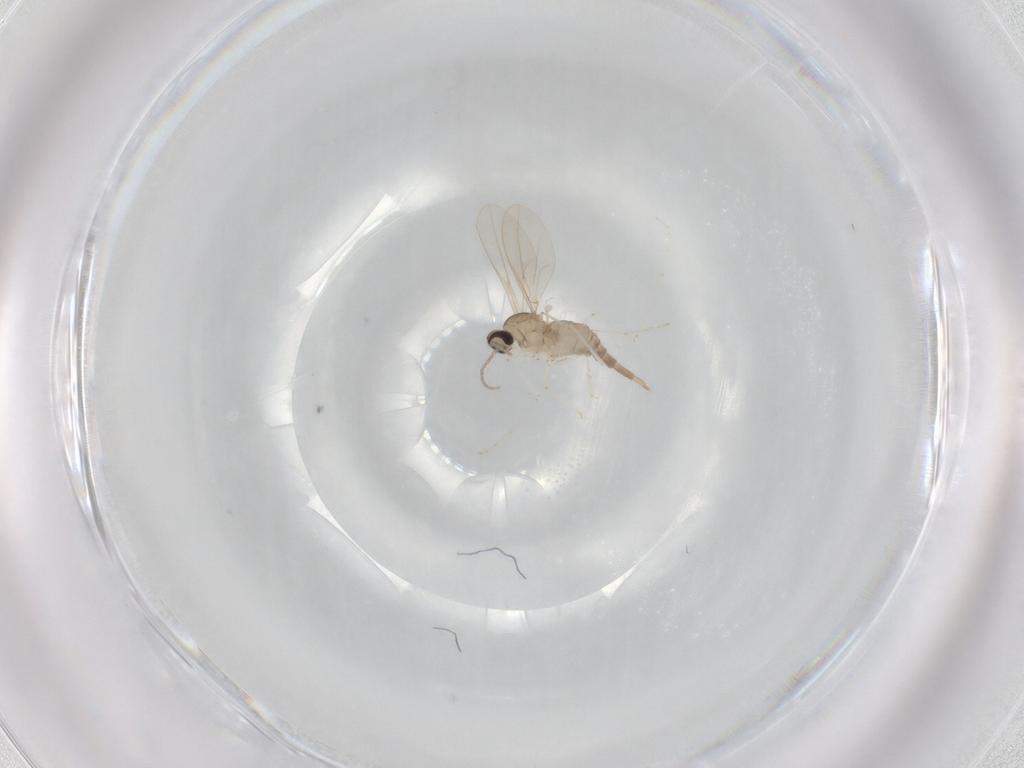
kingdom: Animalia
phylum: Arthropoda
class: Insecta
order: Diptera
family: Cecidomyiidae
